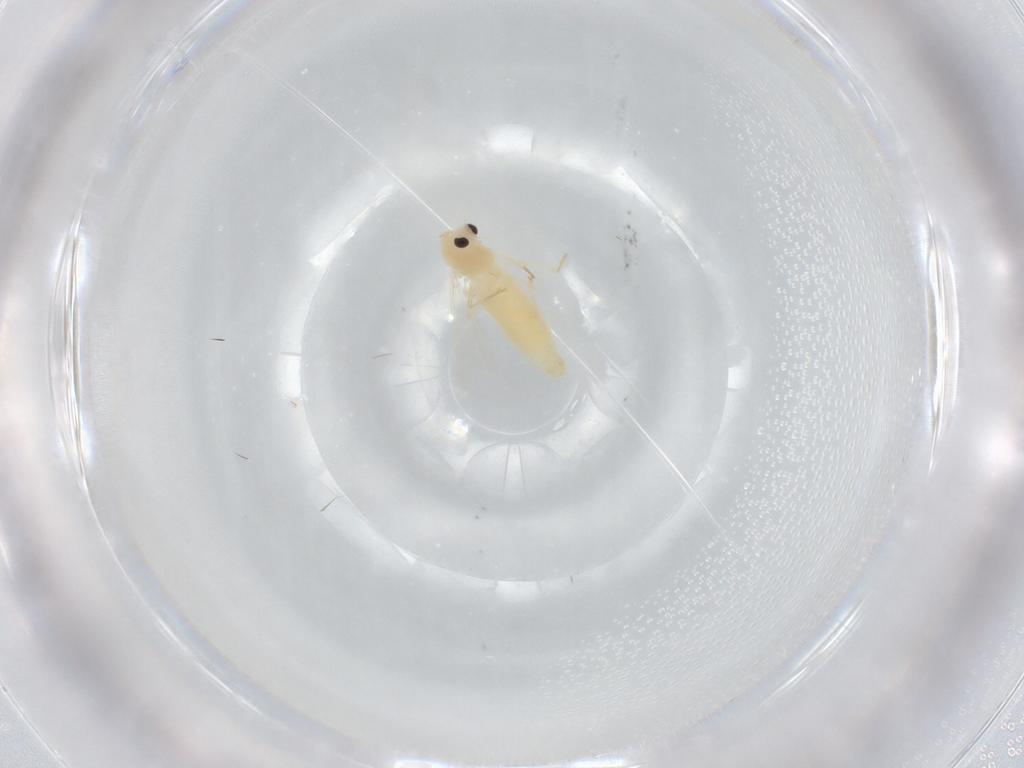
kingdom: Animalia
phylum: Arthropoda
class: Insecta
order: Diptera
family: Chironomidae
